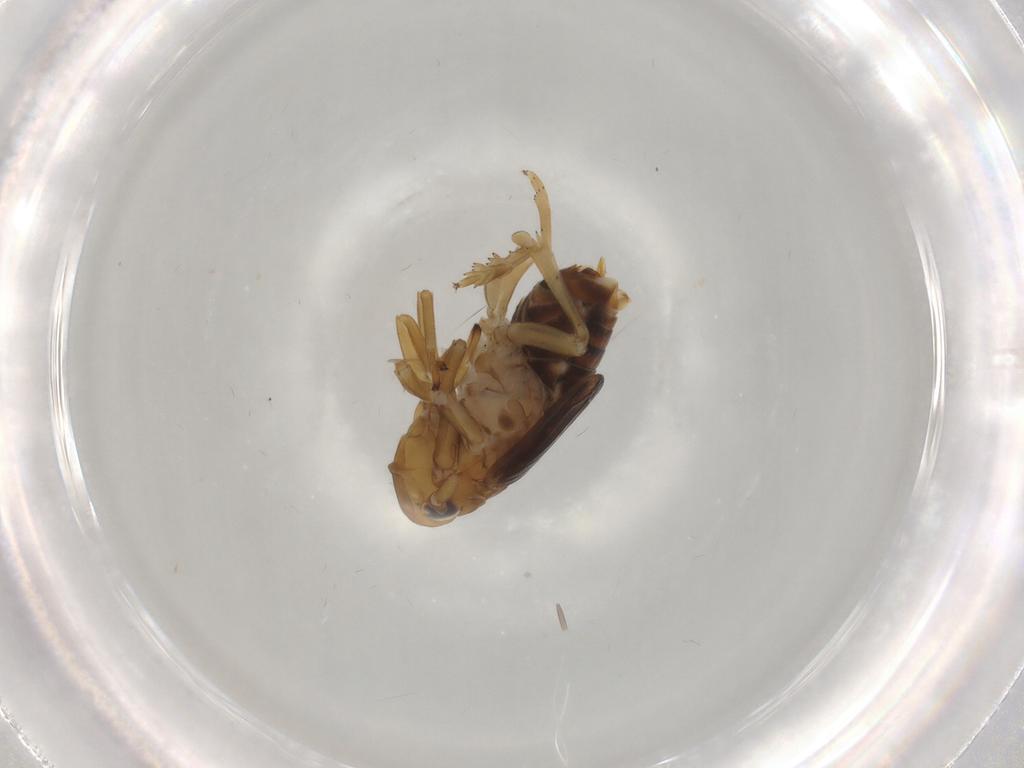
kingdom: Animalia
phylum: Arthropoda
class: Insecta
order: Hemiptera
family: Delphacidae
